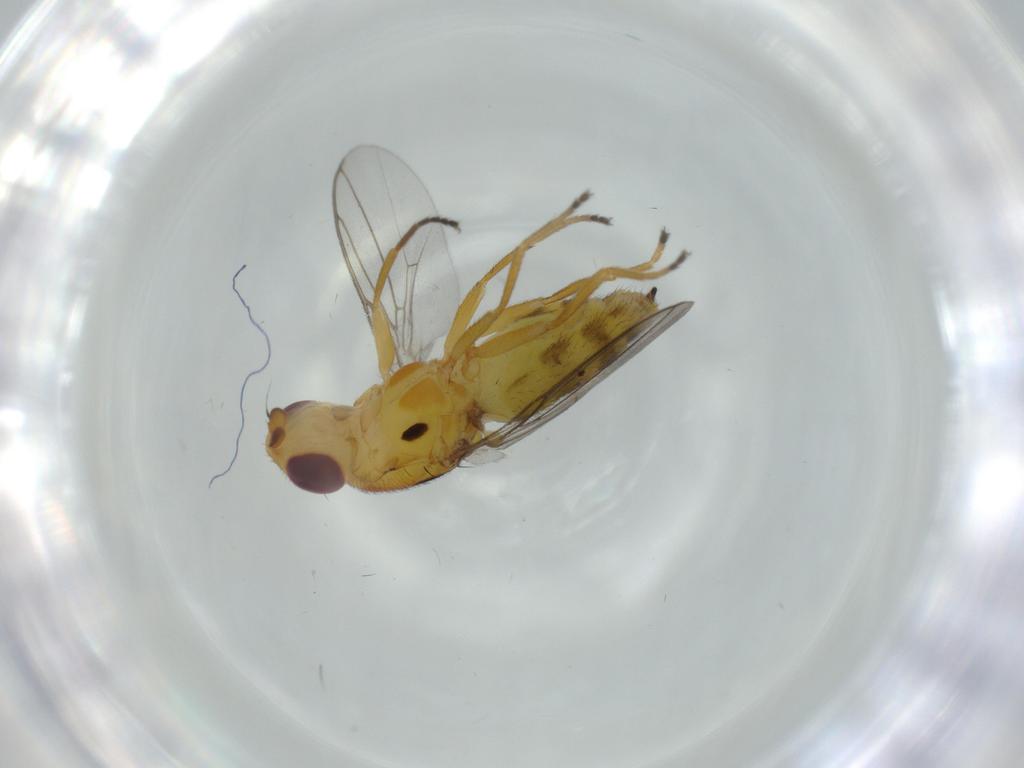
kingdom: Animalia
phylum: Arthropoda
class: Insecta
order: Diptera
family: Chloropidae
